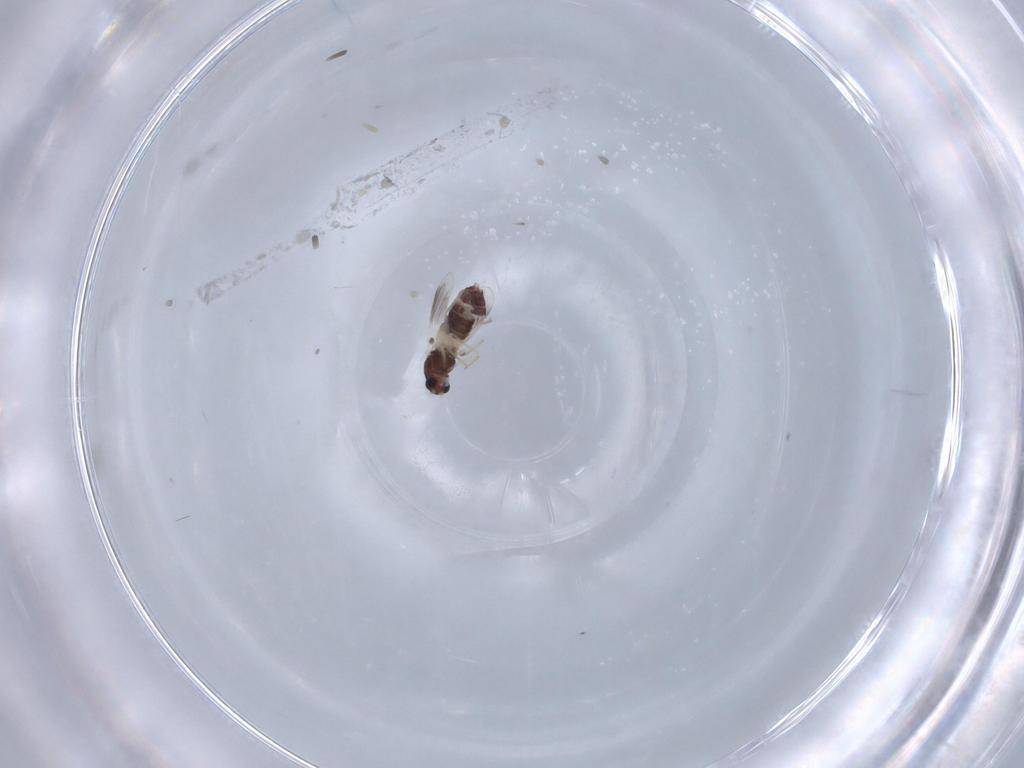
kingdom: Animalia
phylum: Arthropoda
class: Insecta
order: Diptera
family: Chironomidae
